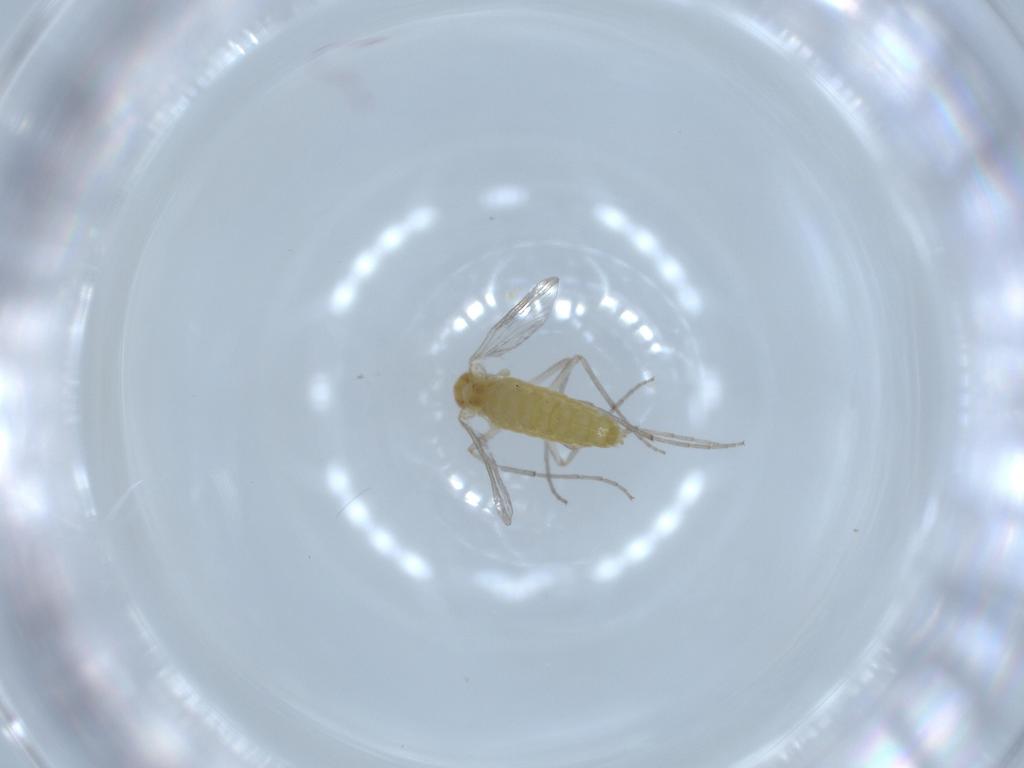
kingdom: Animalia
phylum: Arthropoda
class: Insecta
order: Diptera
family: Chironomidae
